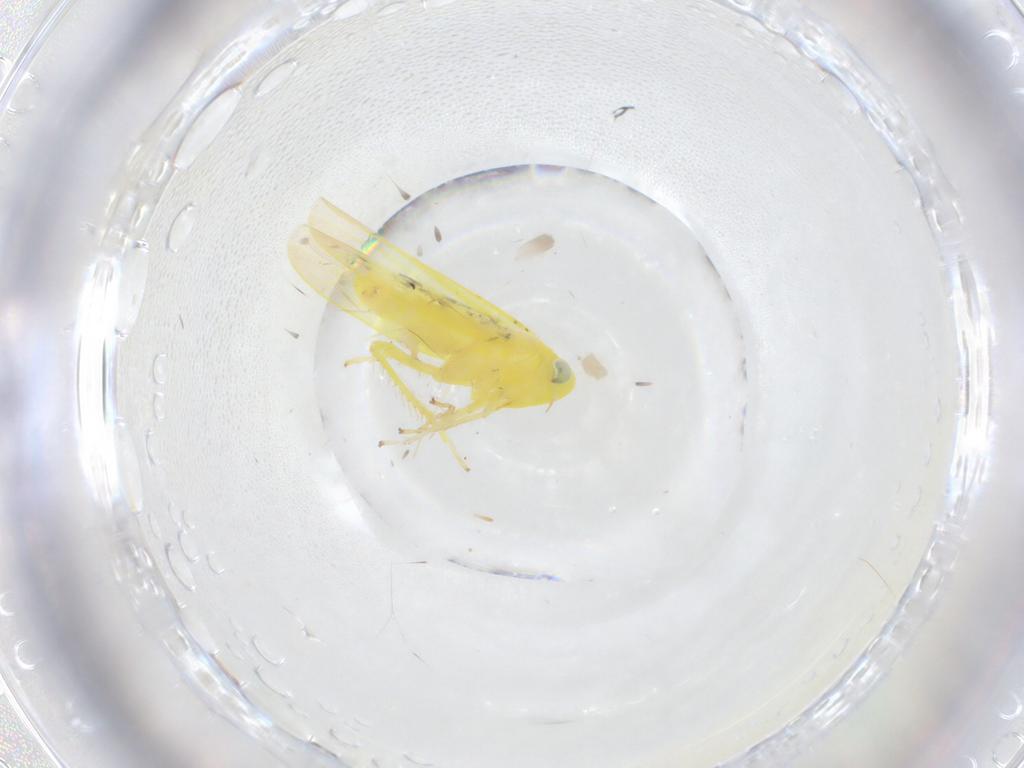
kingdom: Animalia
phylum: Arthropoda
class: Insecta
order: Hemiptera
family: Cicadellidae
